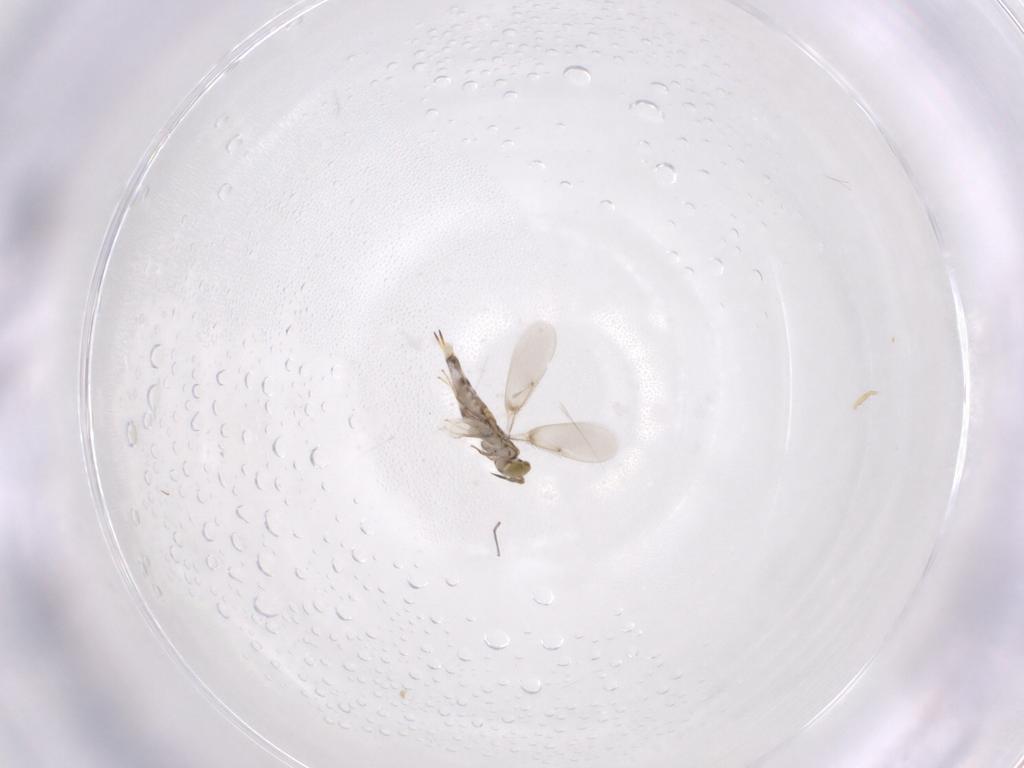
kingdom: Animalia
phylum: Arthropoda
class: Insecta
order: Hymenoptera
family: Aphelinidae
